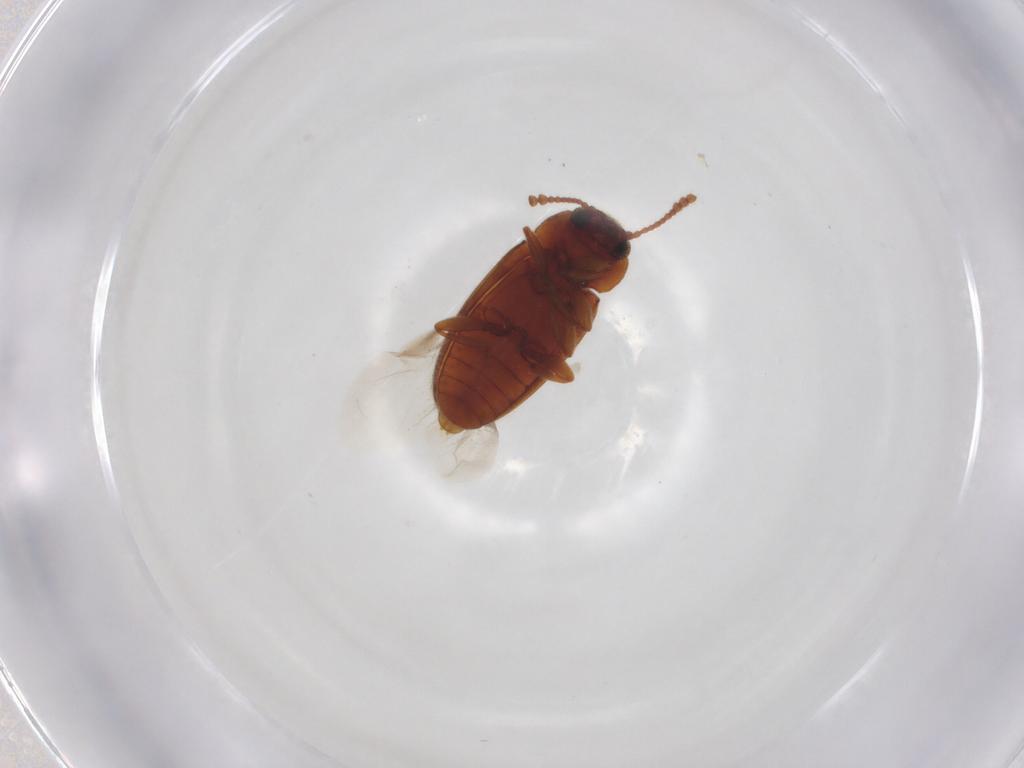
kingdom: Animalia
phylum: Arthropoda
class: Insecta
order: Coleoptera
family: Erotylidae
